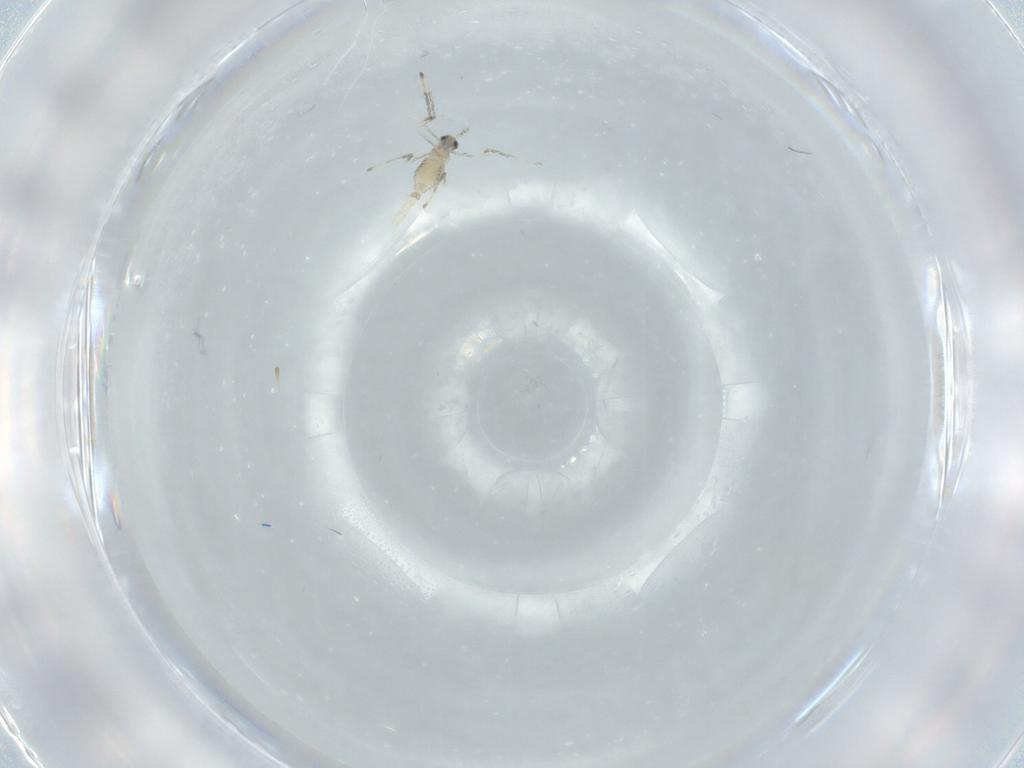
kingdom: Animalia
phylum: Arthropoda
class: Insecta
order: Diptera
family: Cecidomyiidae
